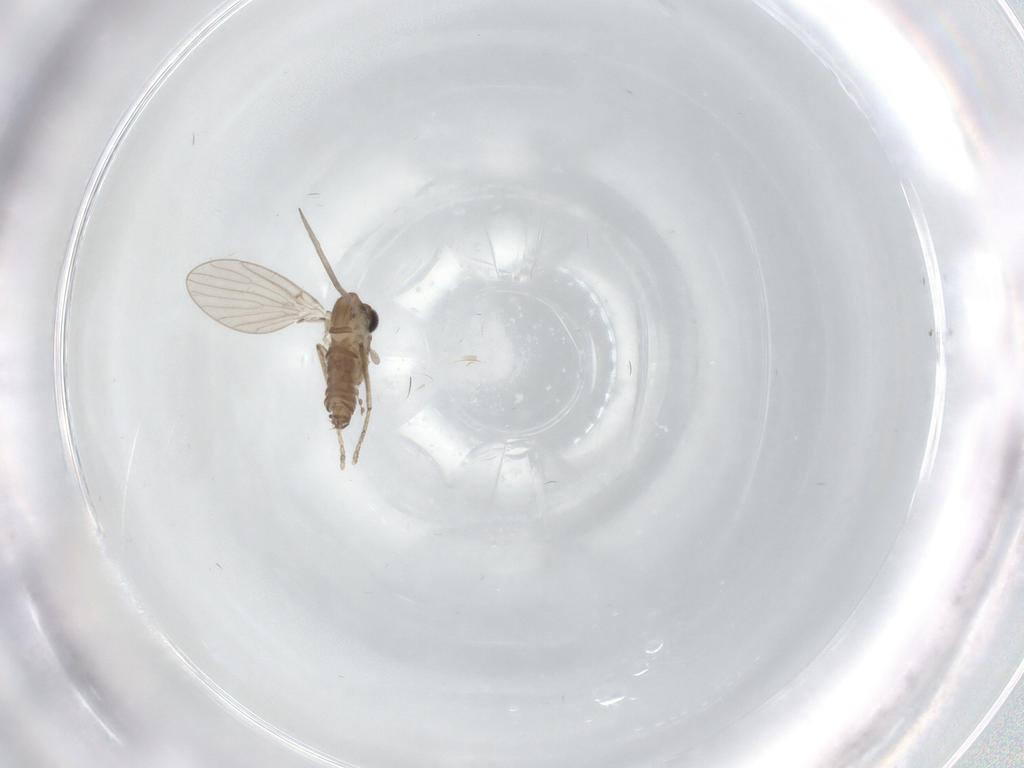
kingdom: Animalia
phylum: Arthropoda
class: Insecta
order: Diptera
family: Psychodidae
